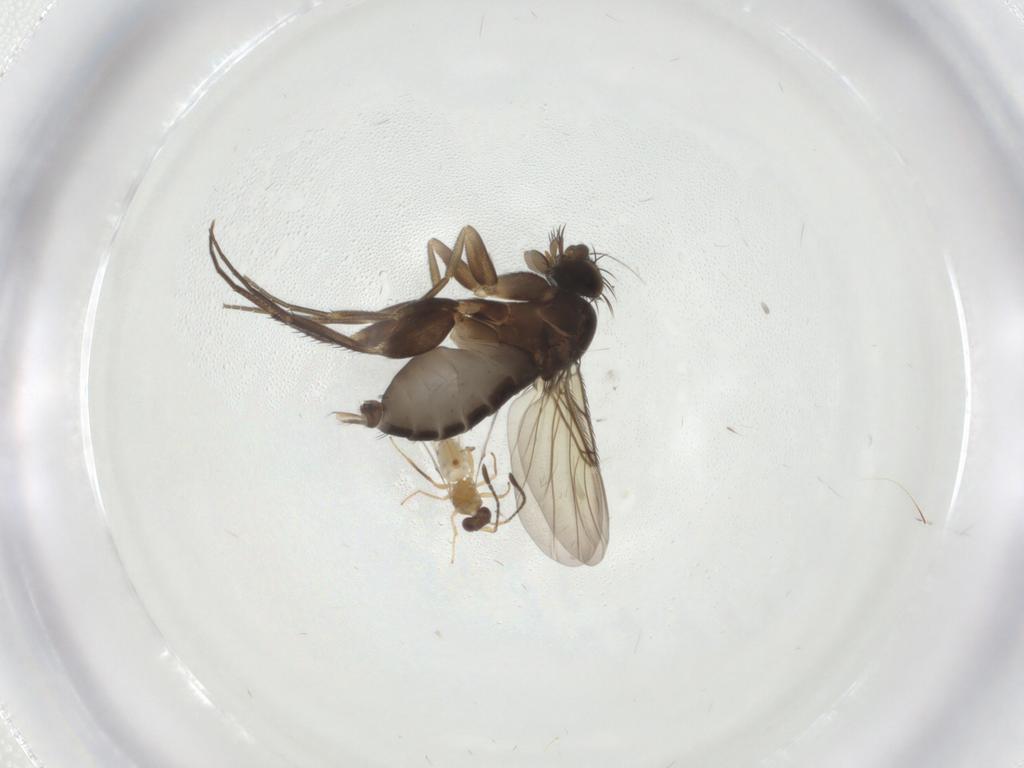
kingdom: Animalia
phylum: Arthropoda
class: Insecta
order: Diptera
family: Phoridae
